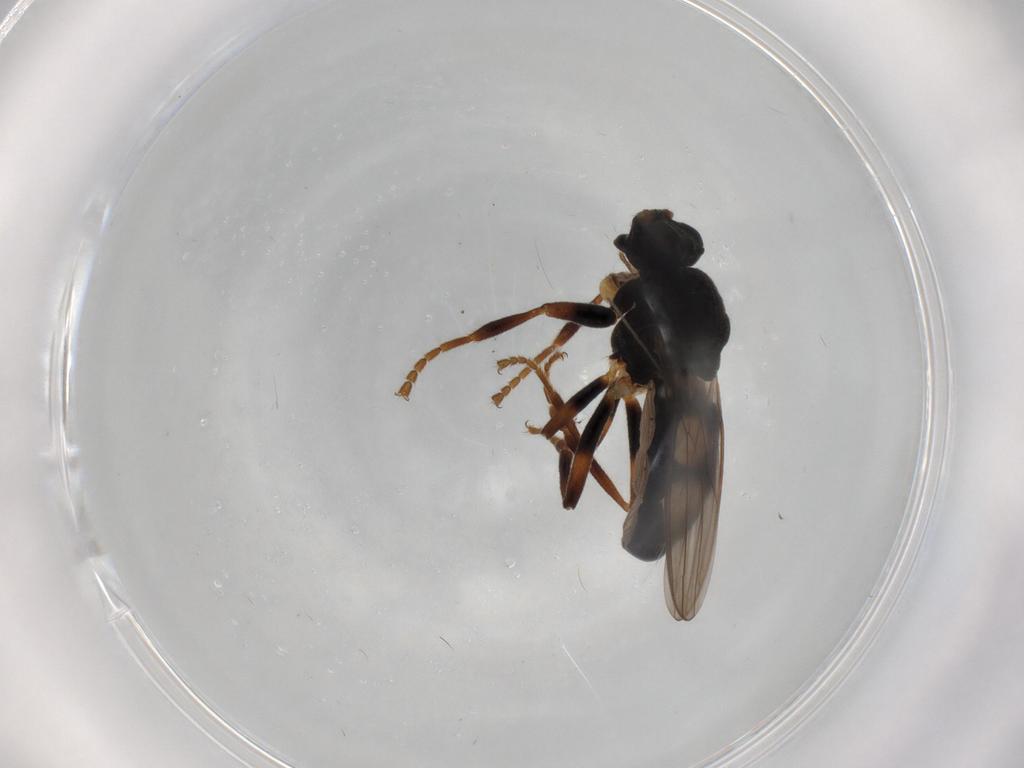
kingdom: Animalia
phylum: Arthropoda
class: Insecta
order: Diptera
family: Sphaeroceridae
